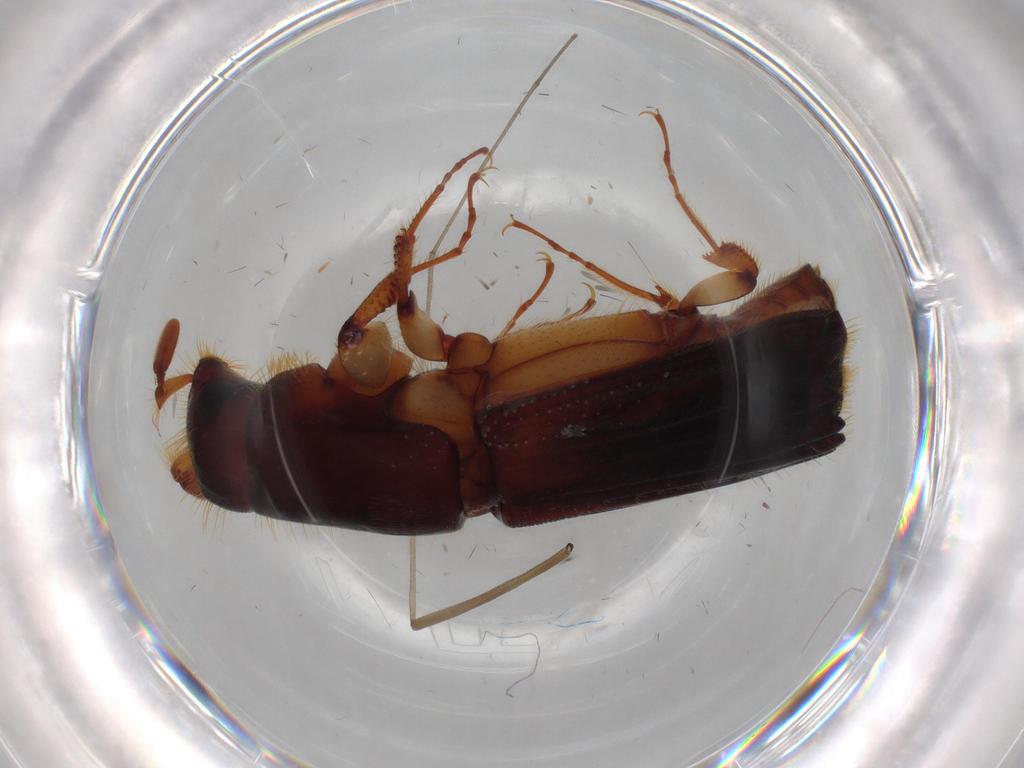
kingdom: Animalia
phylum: Arthropoda
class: Insecta
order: Coleoptera
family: Curculionidae
